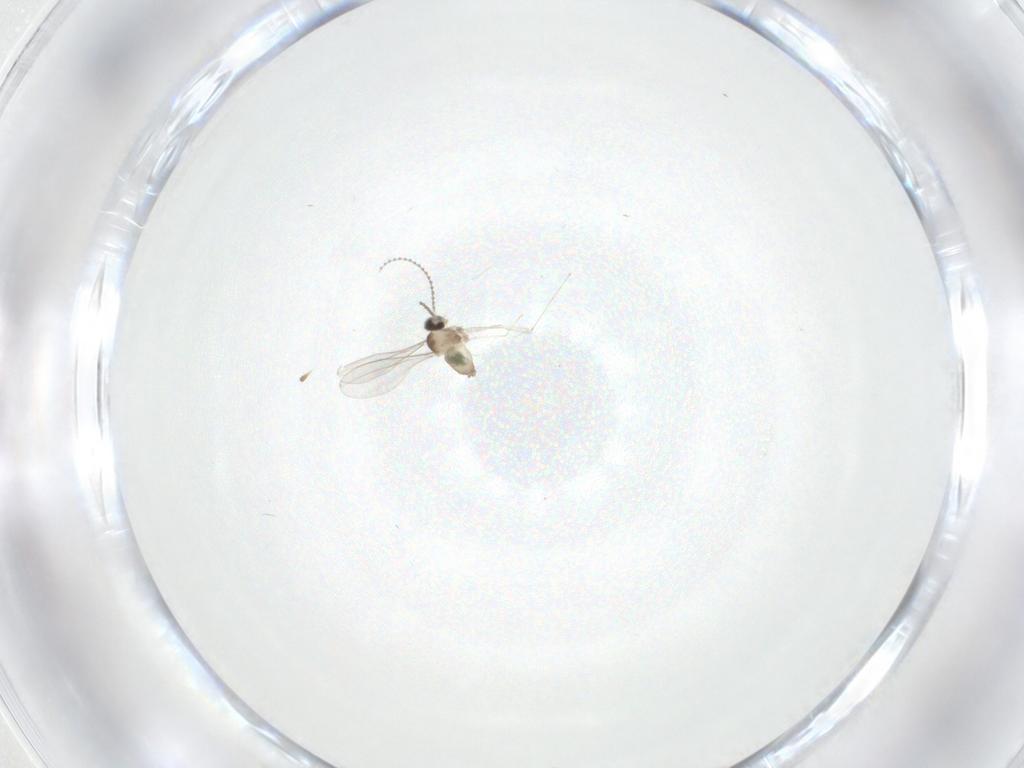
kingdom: Animalia
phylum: Arthropoda
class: Insecta
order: Diptera
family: Cecidomyiidae
